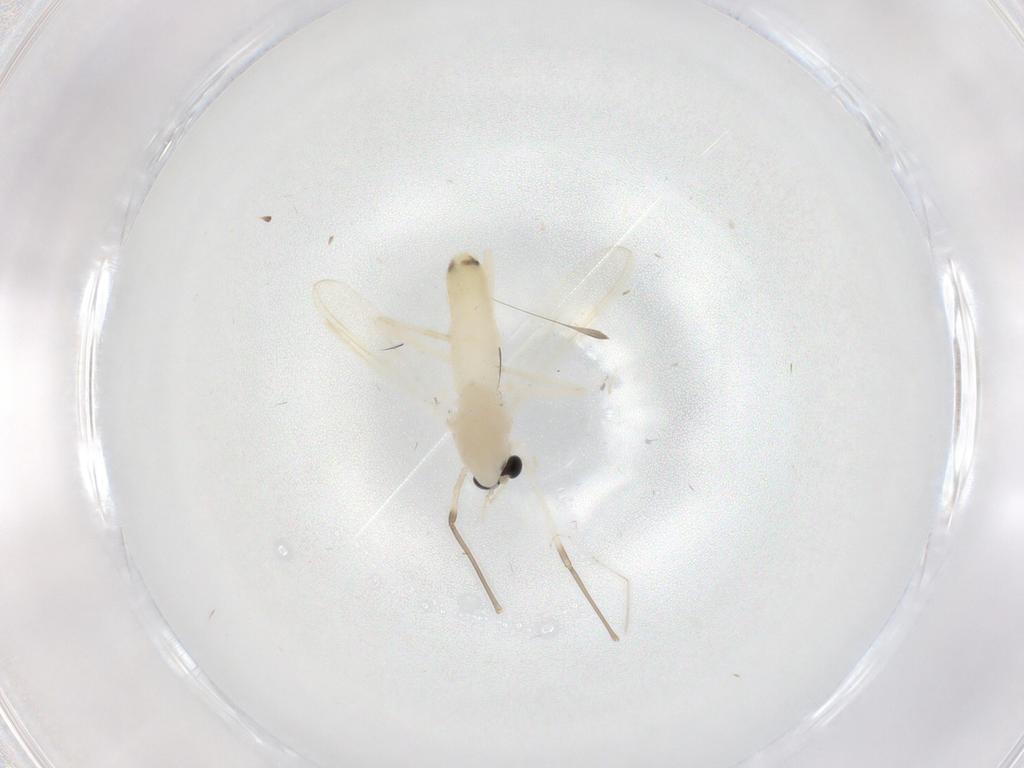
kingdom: Animalia
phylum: Arthropoda
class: Insecta
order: Diptera
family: Chironomidae
